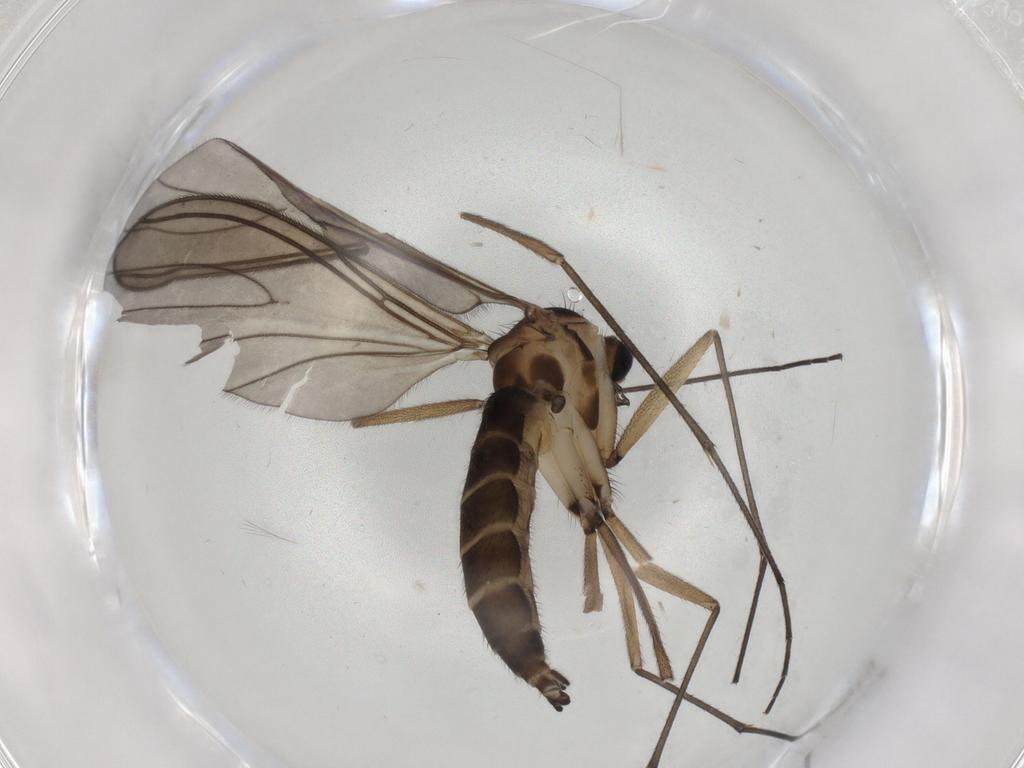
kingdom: Animalia
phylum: Arthropoda
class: Insecta
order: Diptera
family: Sciaridae
